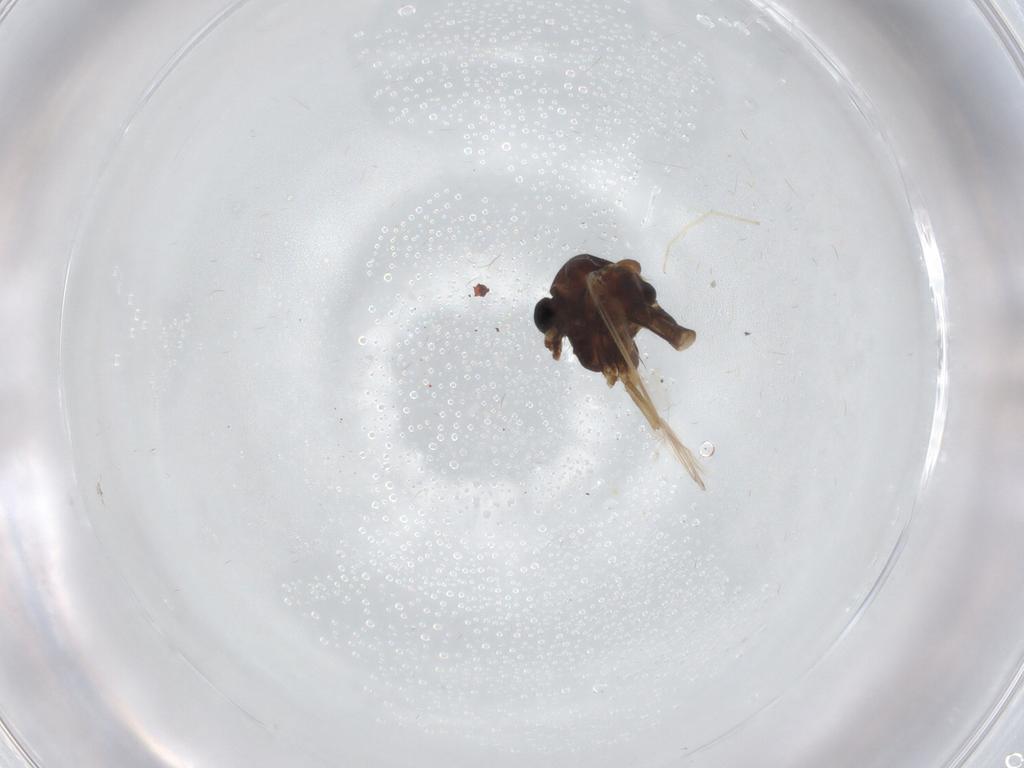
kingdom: Animalia
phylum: Arthropoda
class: Insecta
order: Diptera
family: Chironomidae
